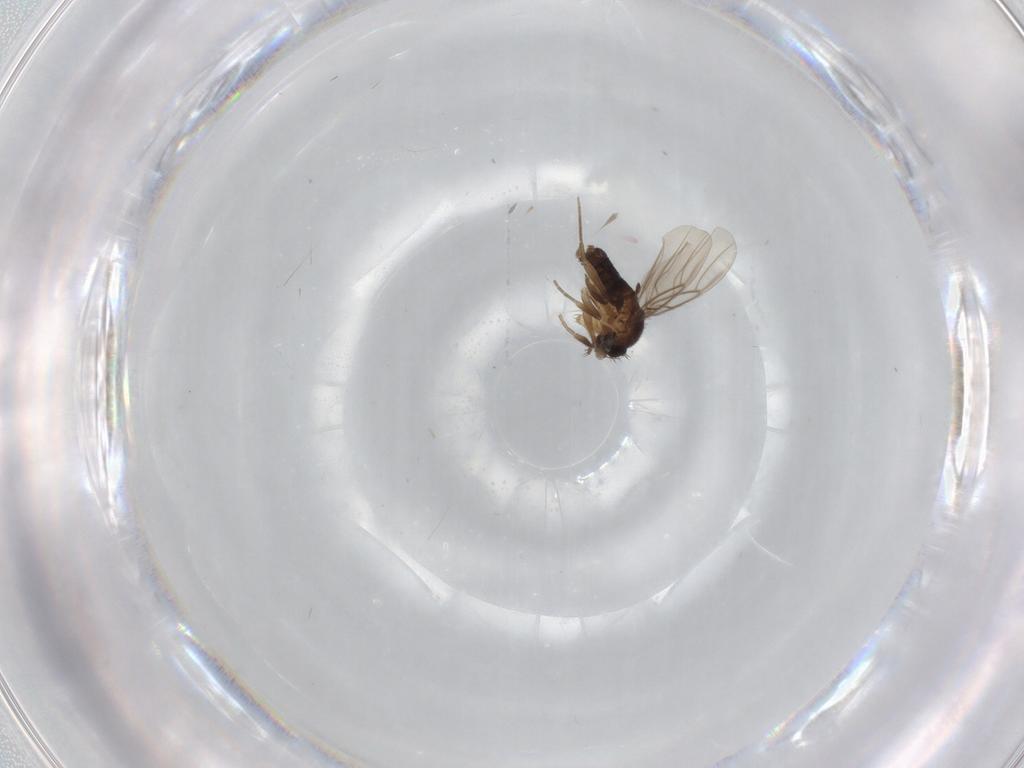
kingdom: Animalia
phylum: Arthropoda
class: Insecta
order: Diptera
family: Phoridae
